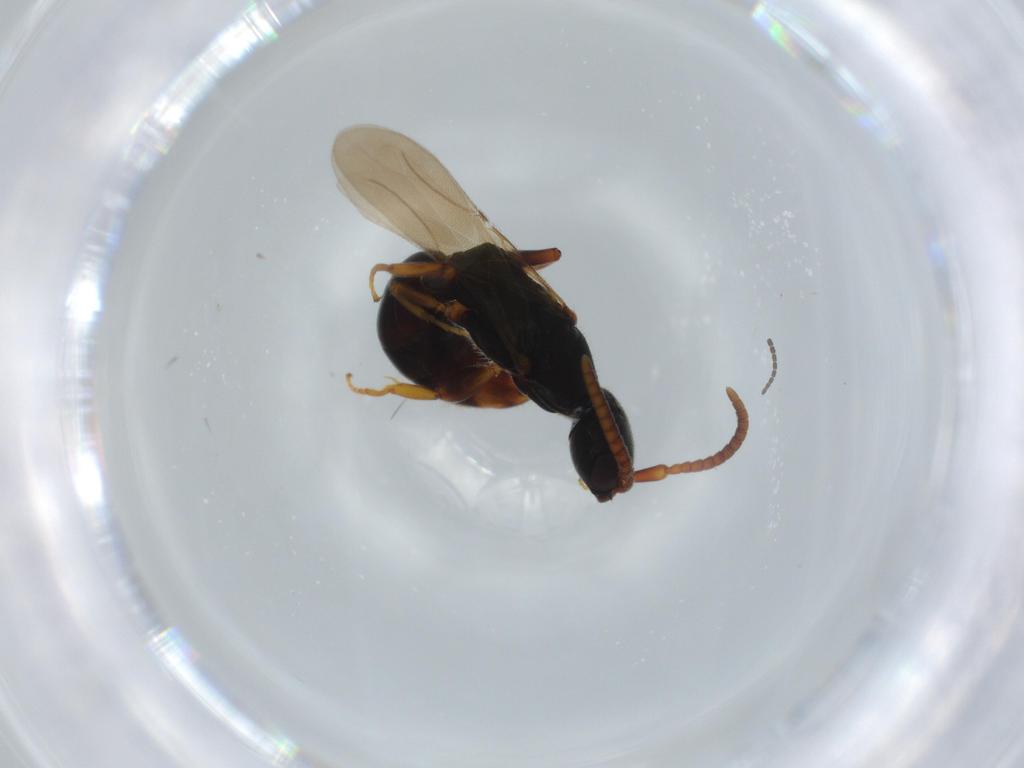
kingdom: Animalia
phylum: Arthropoda
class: Insecta
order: Hymenoptera
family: Bethylidae
